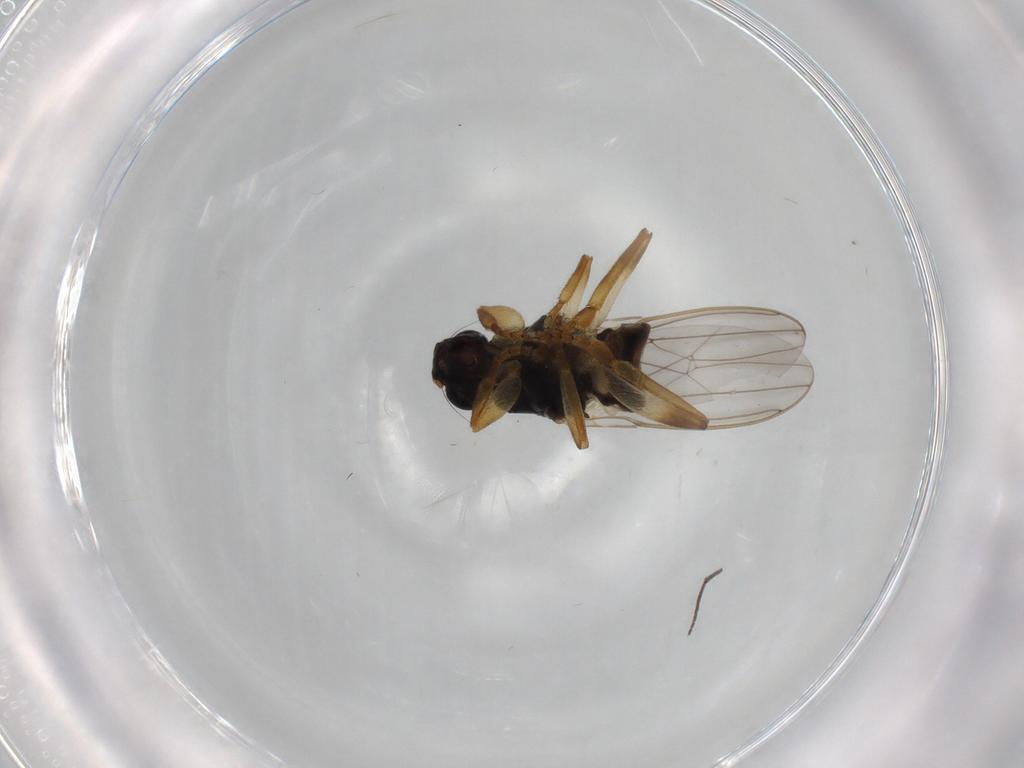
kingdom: Animalia
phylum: Arthropoda
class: Insecta
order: Diptera
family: Sphaeroceridae
